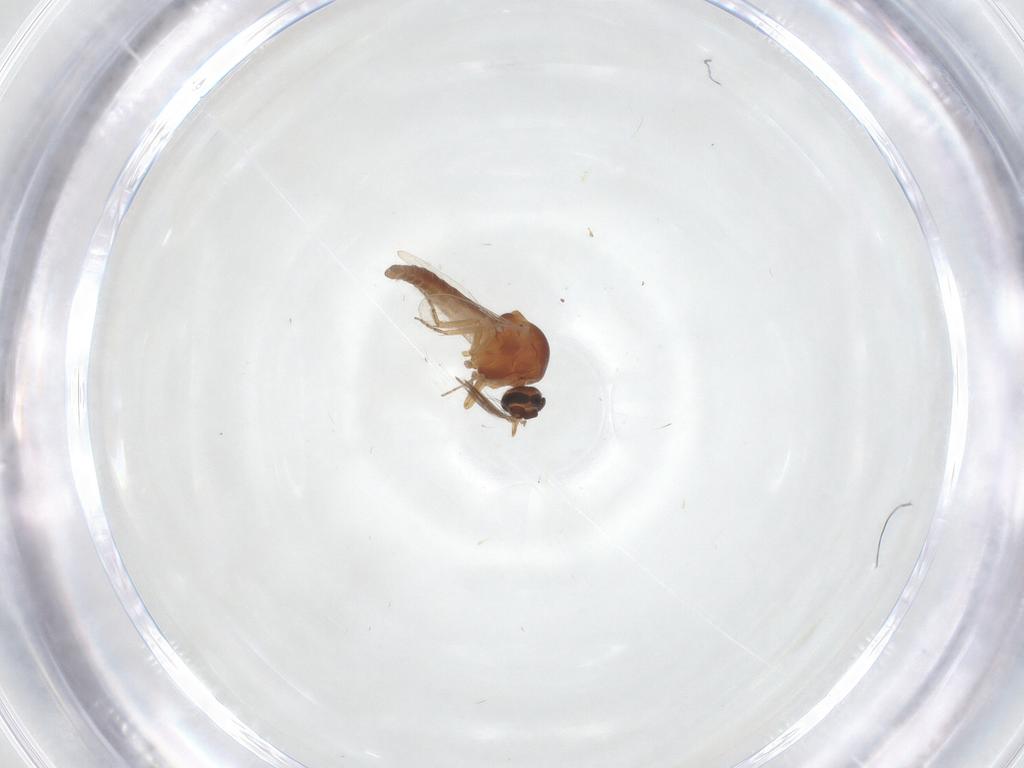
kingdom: Animalia
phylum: Arthropoda
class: Insecta
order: Diptera
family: Ceratopogonidae
